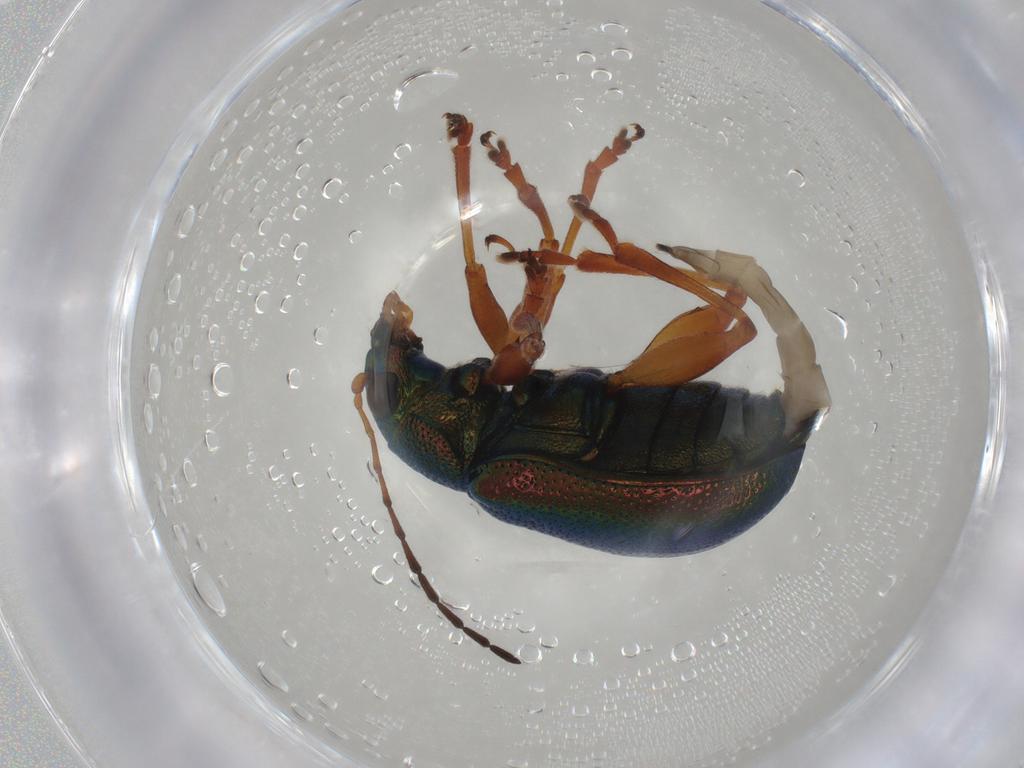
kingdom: Animalia
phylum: Arthropoda
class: Insecta
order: Coleoptera
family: Chrysomelidae
